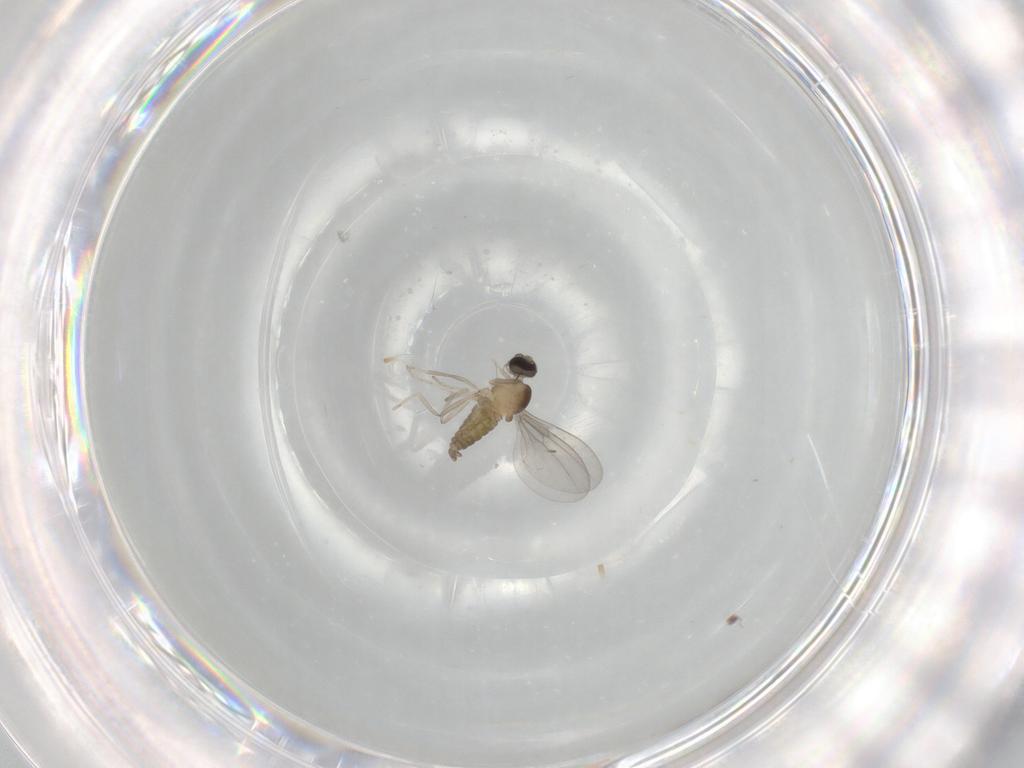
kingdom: Animalia
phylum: Arthropoda
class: Insecta
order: Diptera
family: Cecidomyiidae
